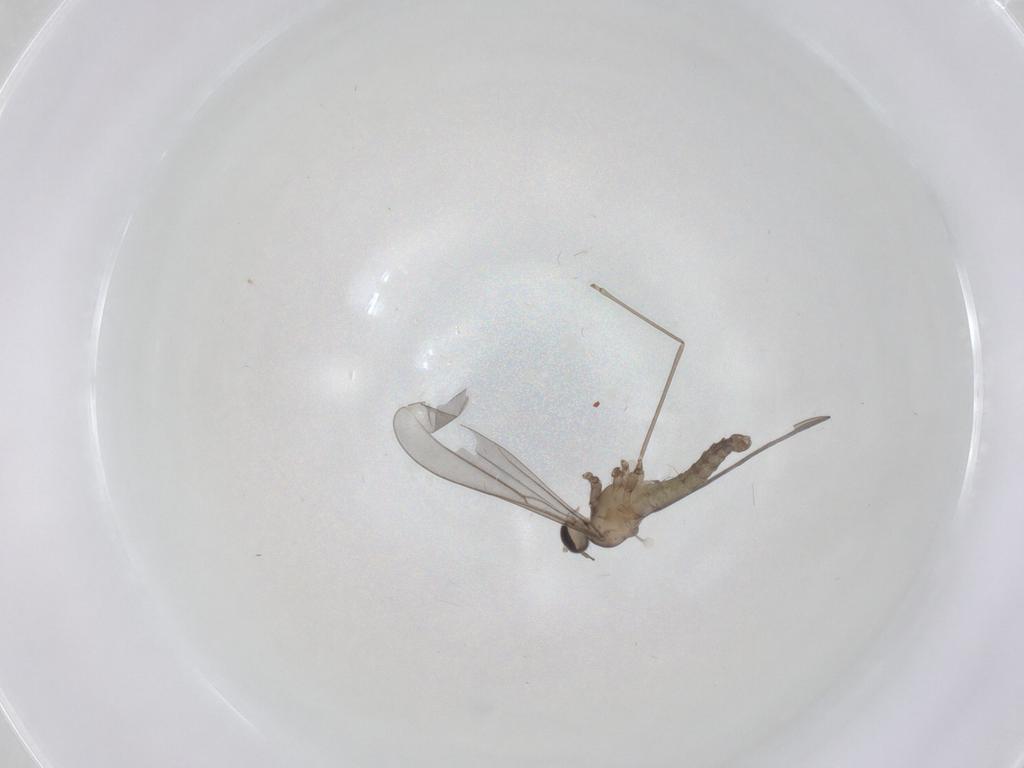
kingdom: Animalia
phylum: Arthropoda
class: Insecta
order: Diptera
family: Cecidomyiidae
